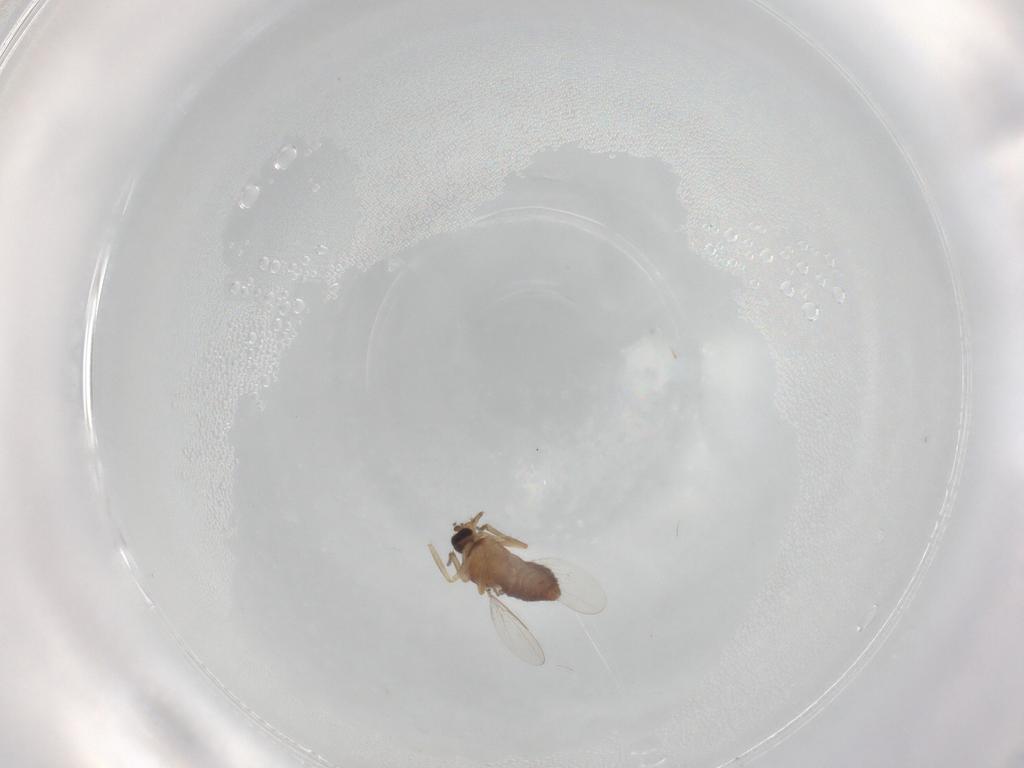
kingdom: Animalia
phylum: Arthropoda
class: Insecta
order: Diptera
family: Ceratopogonidae
